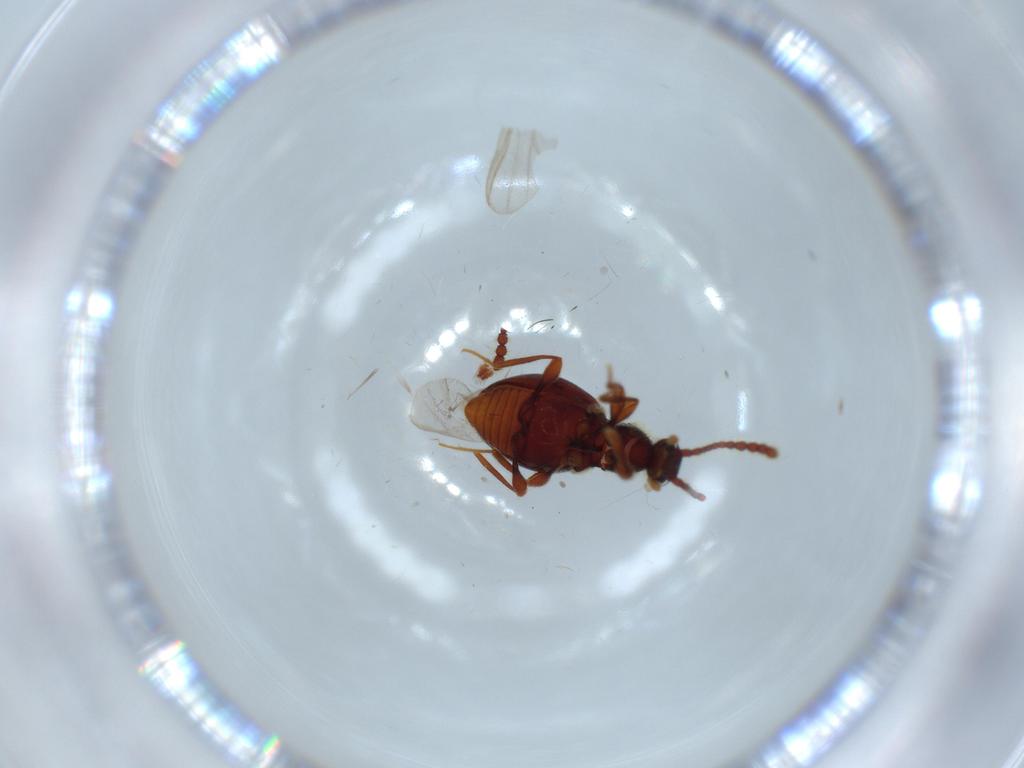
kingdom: Animalia
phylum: Arthropoda
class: Insecta
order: Coleoptera
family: Staphylinidae
